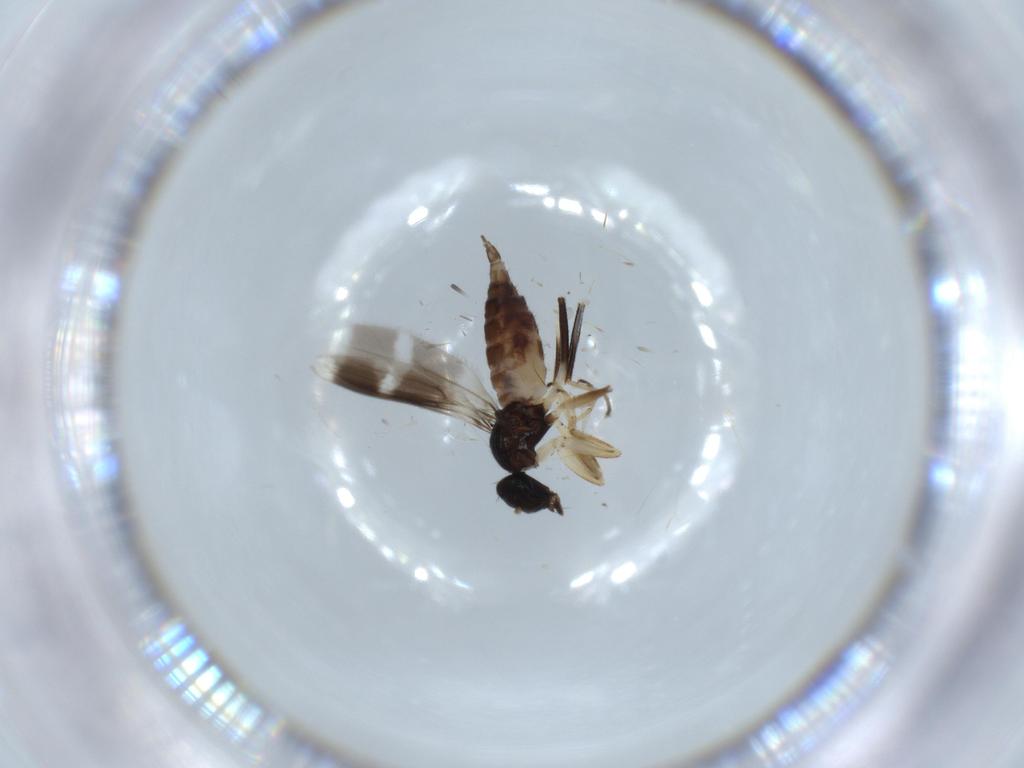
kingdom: Animalia
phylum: Arthropoda
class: Insecta
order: Diptera
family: Hybotidae
